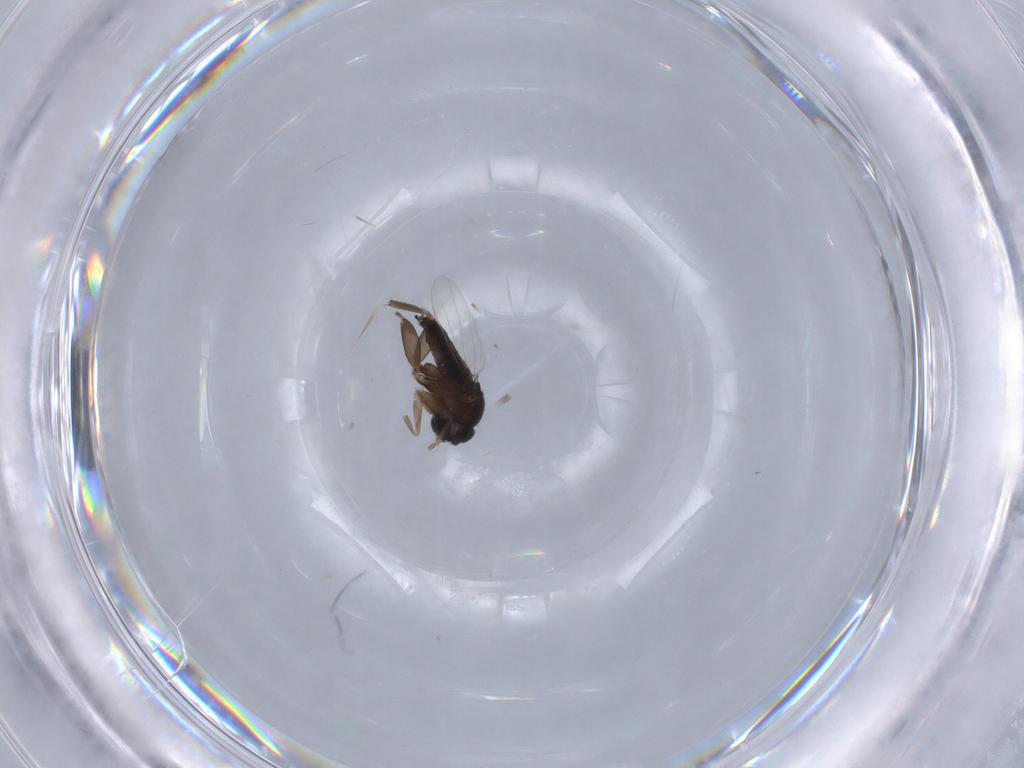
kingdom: Animalia
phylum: Arthropoda
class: Insecta
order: Diptera
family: Phoridae
